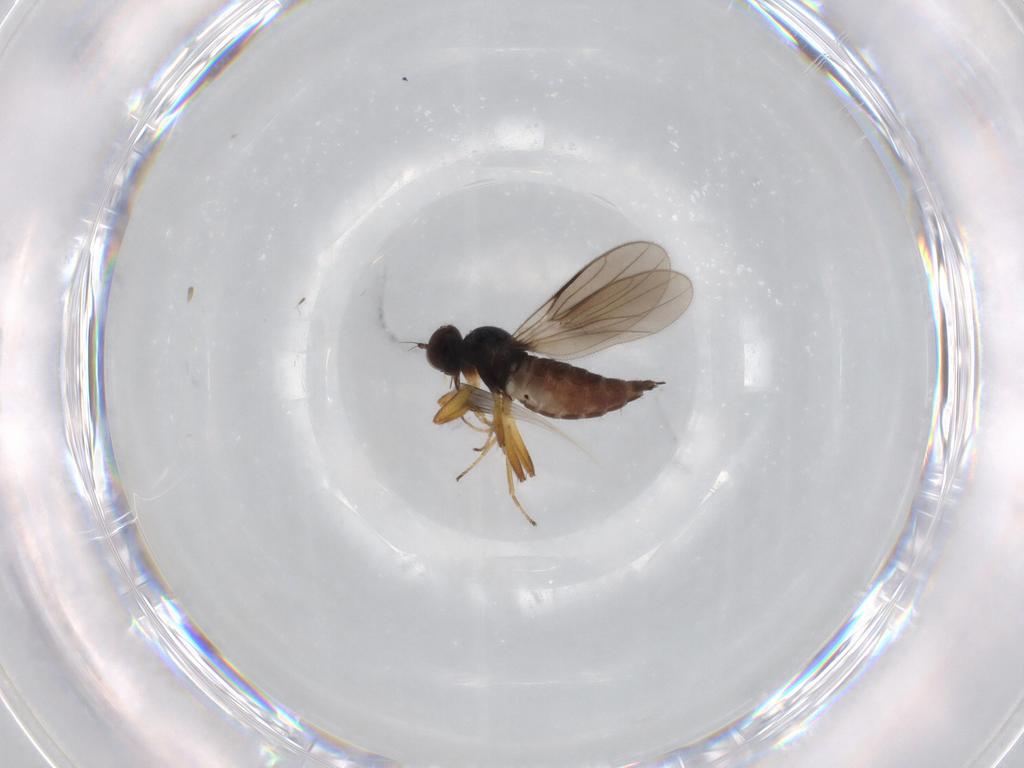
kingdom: Animalia
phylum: Arthropoda
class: Insecta
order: Diptera
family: Hybotidae
